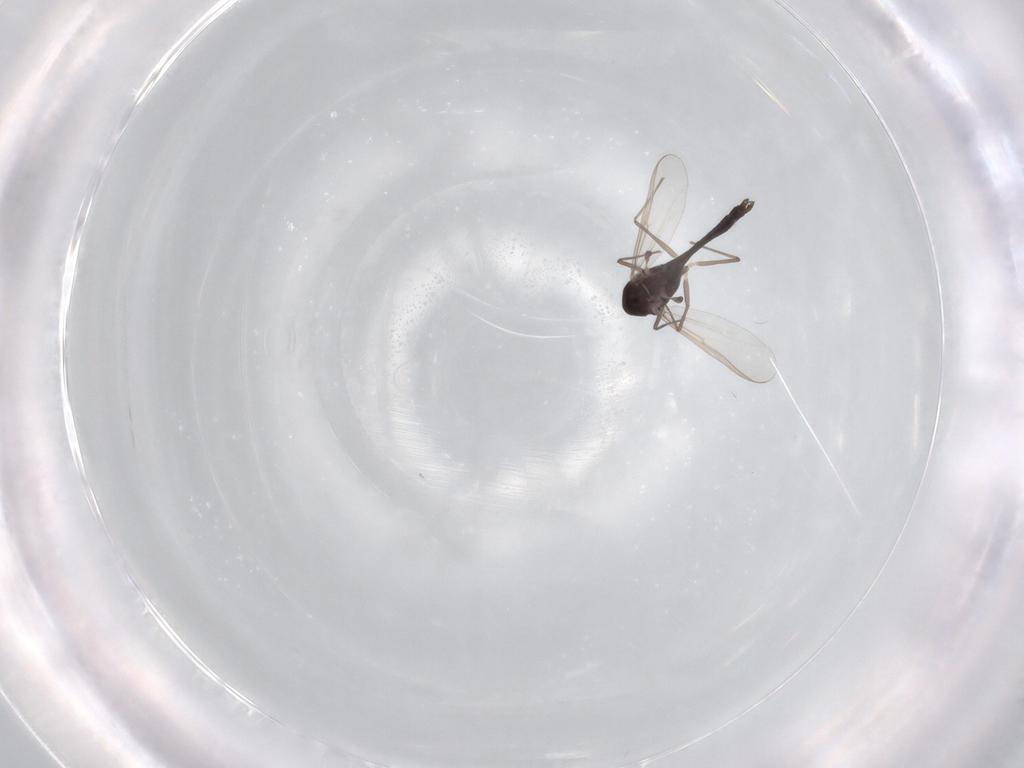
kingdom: Animalia
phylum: Arthropoda
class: Insecta
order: Diptera
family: Chironomidae
